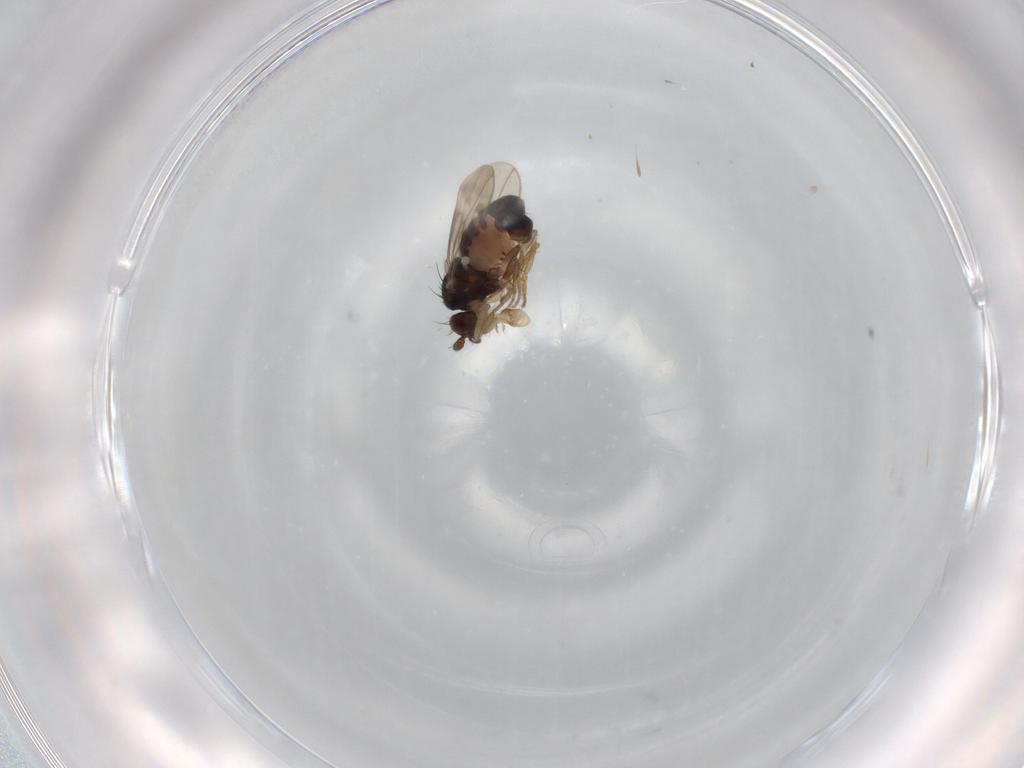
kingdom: Animalia
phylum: Arthropoda
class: Insecta
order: Diptera
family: Sphaeroceridae
